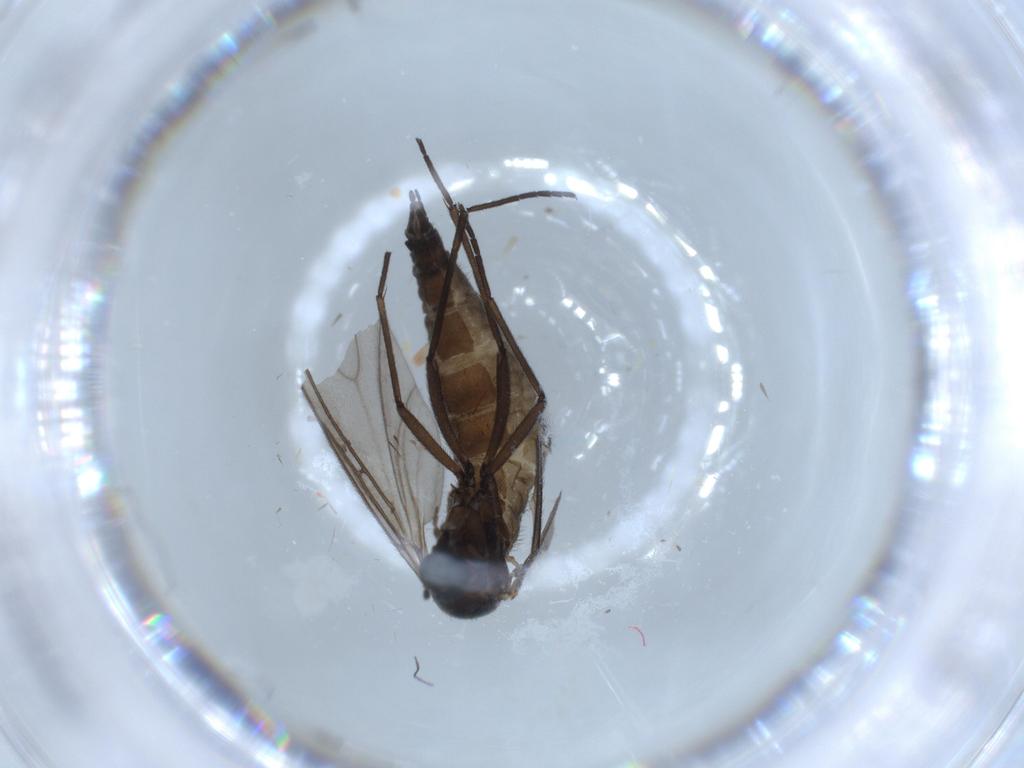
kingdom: Animalia
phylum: Arthropoda
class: Insecta
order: Diptera
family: Sciaridae
